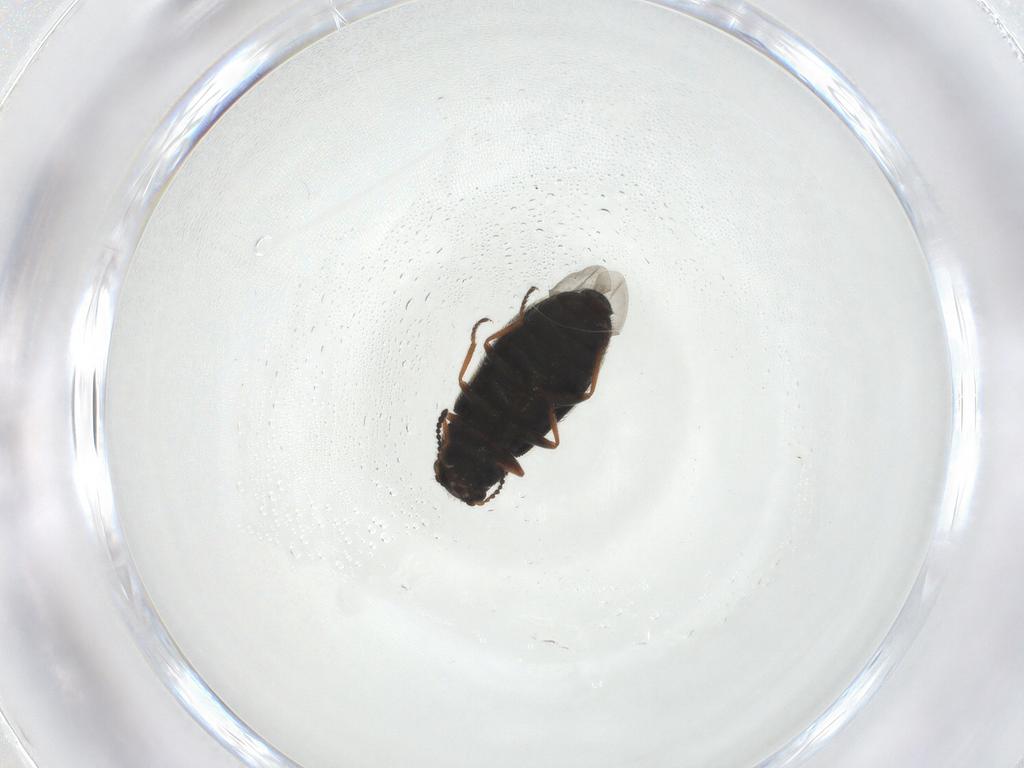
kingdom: Animalia
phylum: Arthropoda
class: Insecta
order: Coleoptera
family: Melyridae
